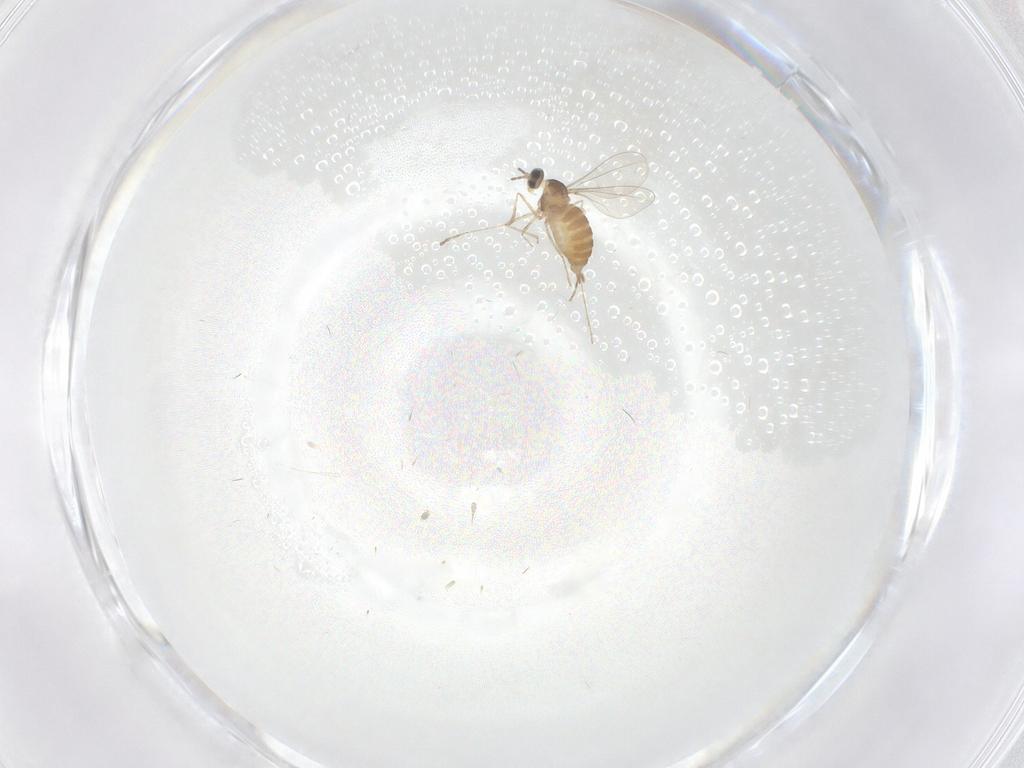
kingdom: Animalia
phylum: Arthropoda
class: Insecta
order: Diptera
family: Cecidomyiidae
